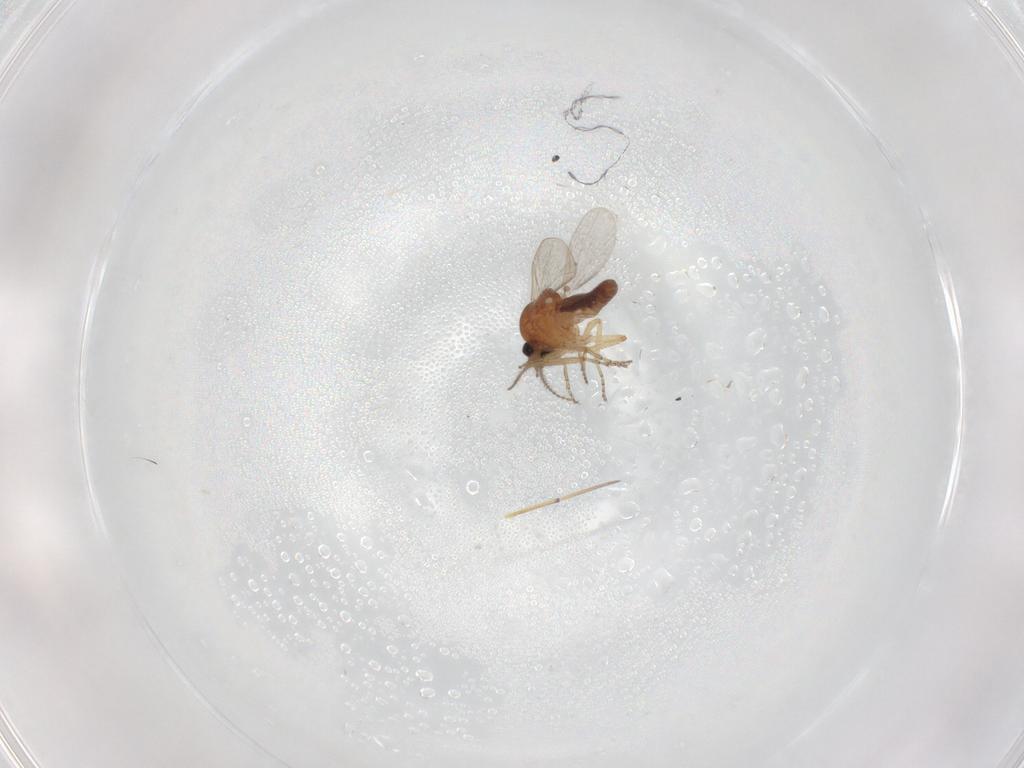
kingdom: Animalia
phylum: Arthropoda
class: Insecta
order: Diptera
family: Ceratopogonidae
